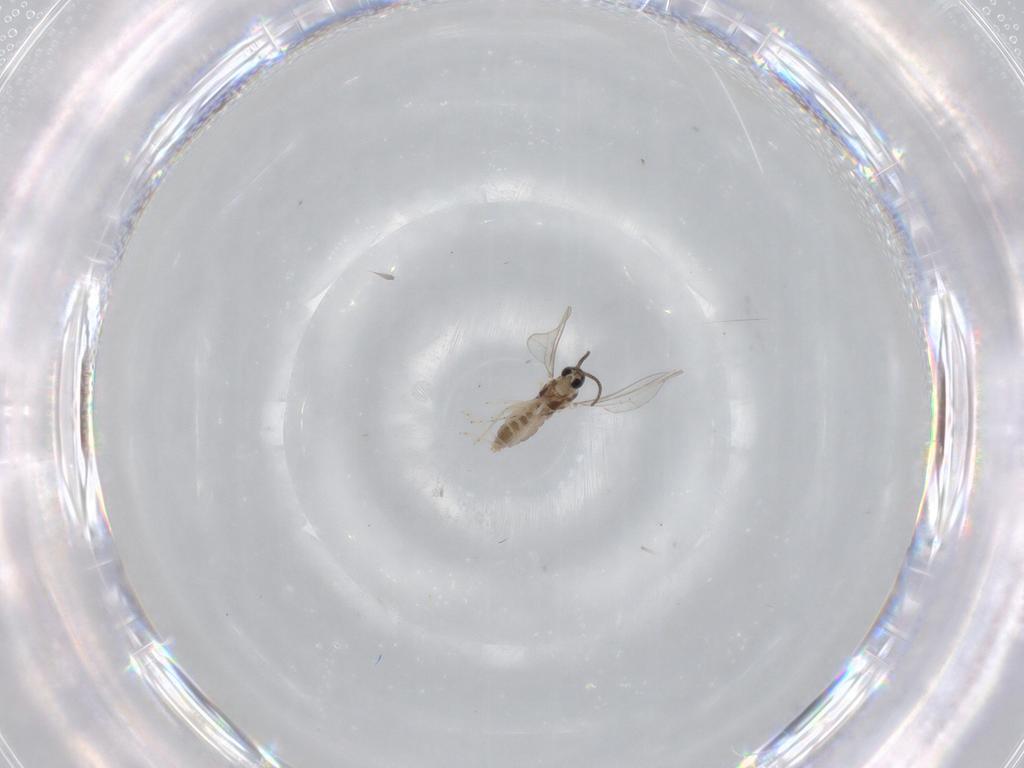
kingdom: Animalia
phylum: Arthropoda
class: Insecta
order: Diptera
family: Cecidomyiidae
